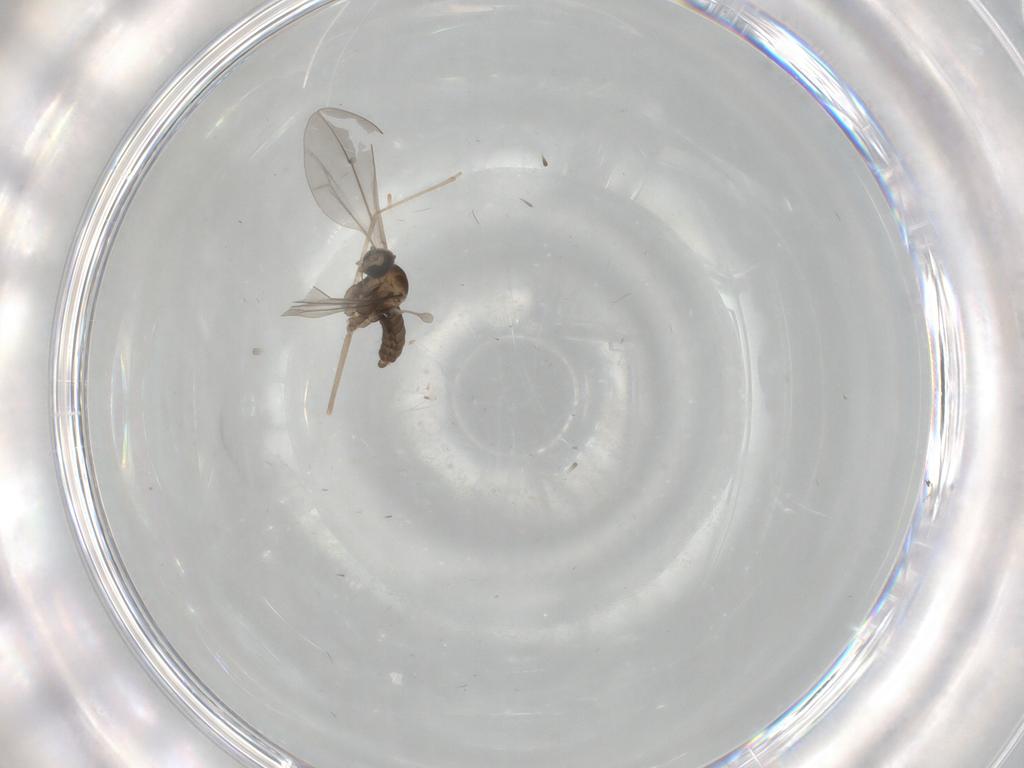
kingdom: Animalia
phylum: Arthropoda
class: Insecta
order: Diptera
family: Cecidomyiidae
